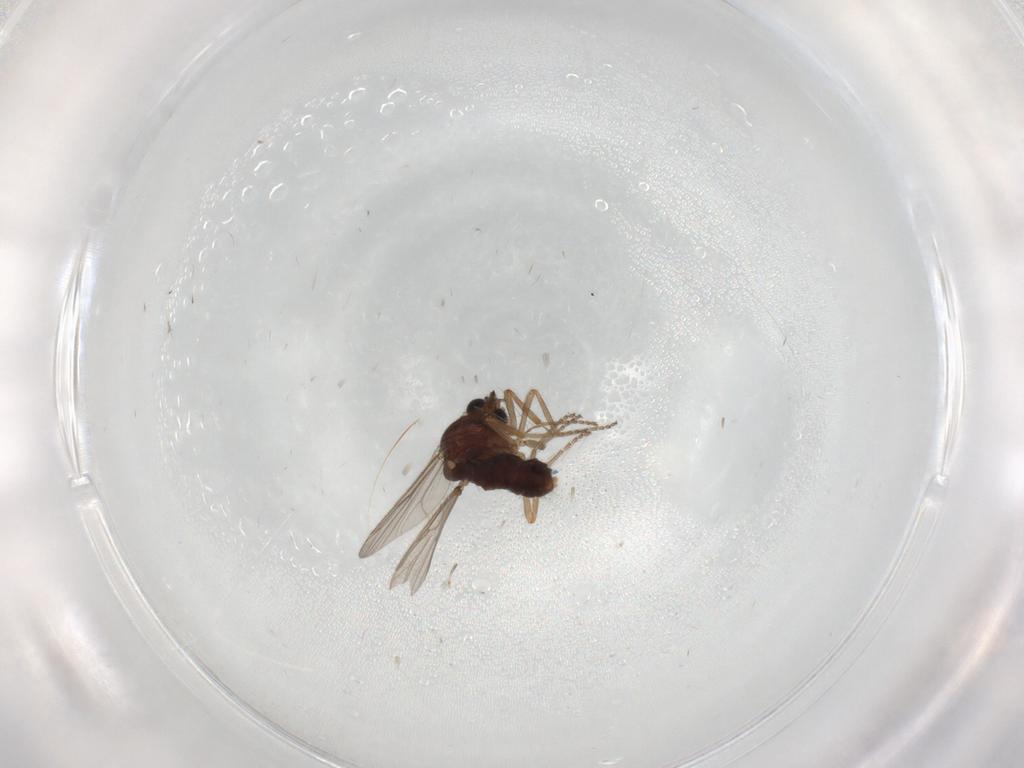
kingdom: Animalia
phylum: Arthropoda
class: Insecta
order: Diptera
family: Ceratopogonidae
